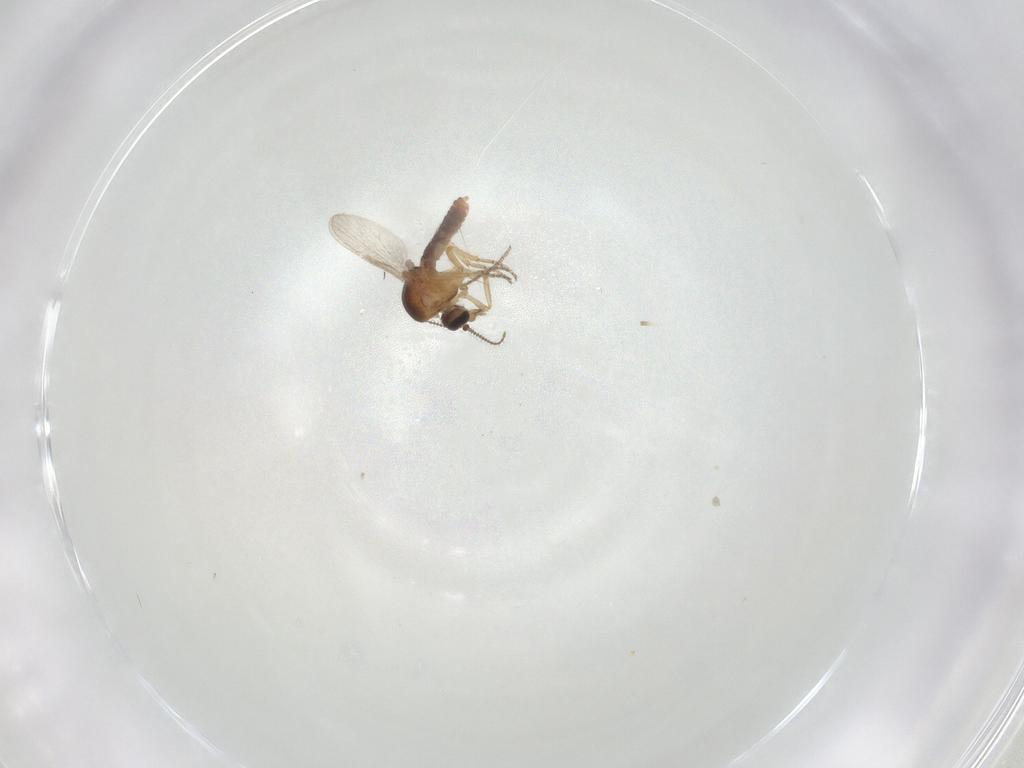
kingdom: Animalia
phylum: Arthropoda
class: Insecta
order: Diptera
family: Ceratopogonidae
